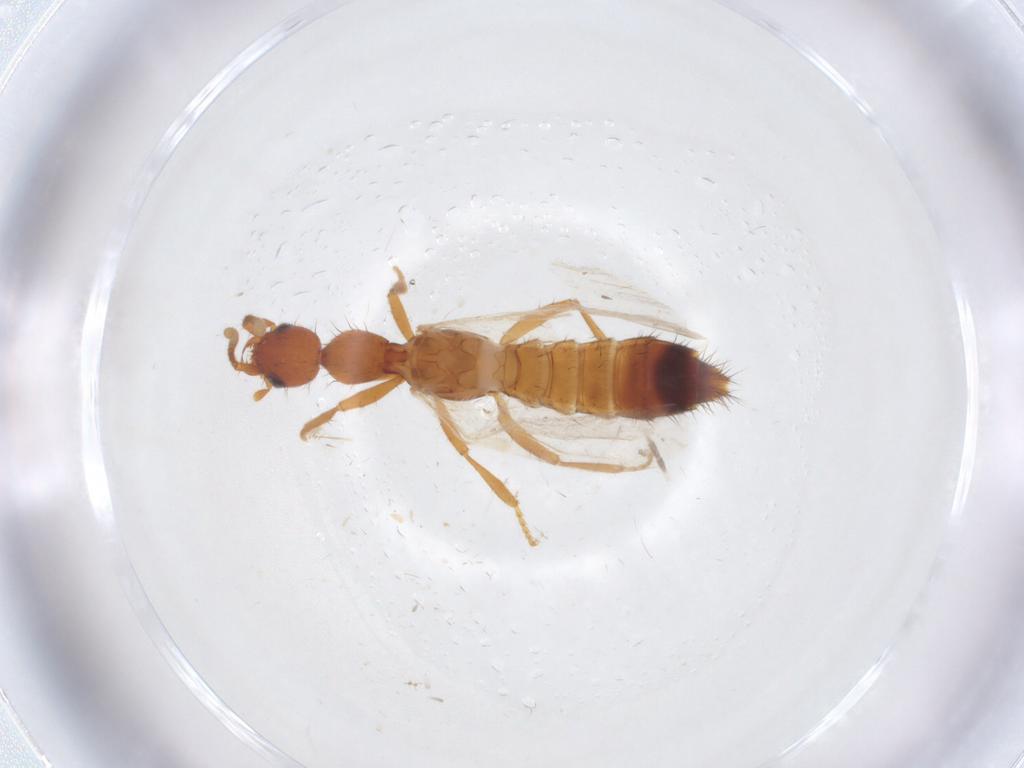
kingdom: Animalia
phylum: Arthropoda
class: Insecta
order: Coleoptera
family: Staphylinidae
